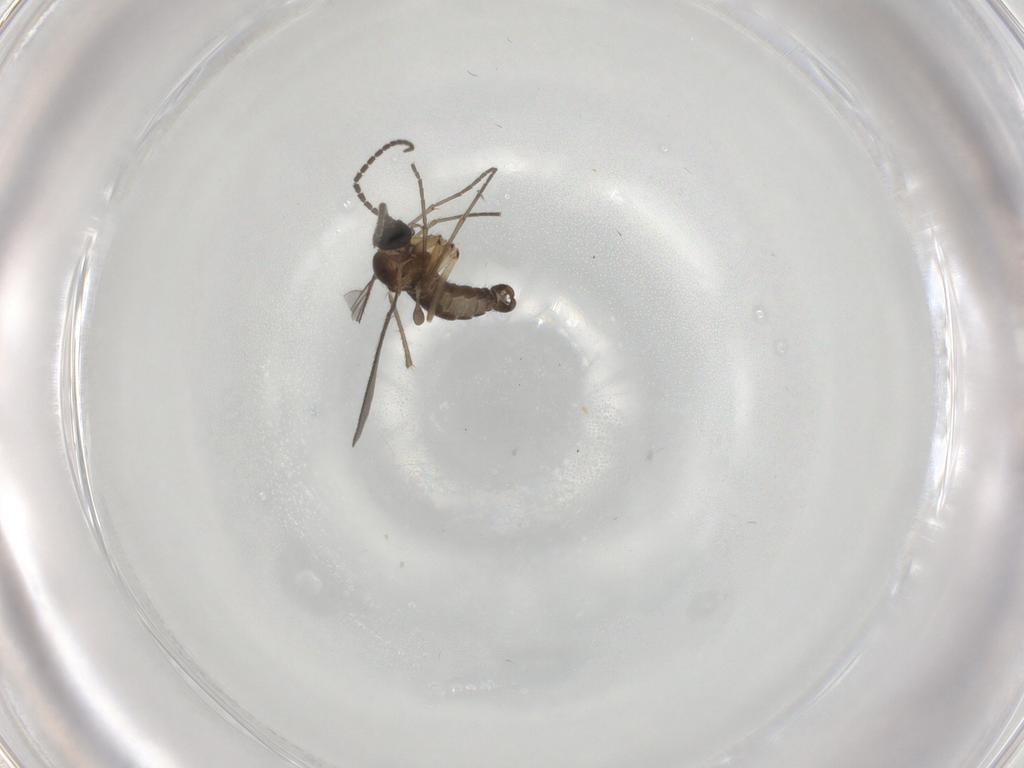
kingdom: Animalia
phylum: Arthropoda
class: Insecta
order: Diptera
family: Sciaridae
